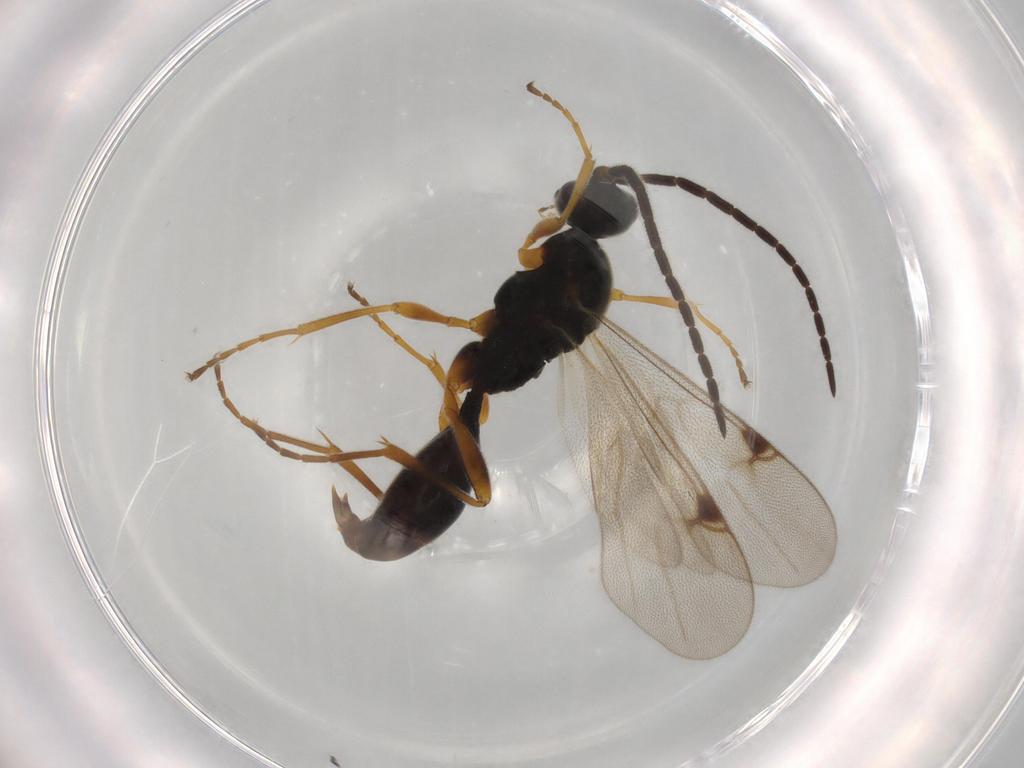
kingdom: Animalia
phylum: Arthropoda
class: Insecta
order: Hymenoptera
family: Proctotrupidae
